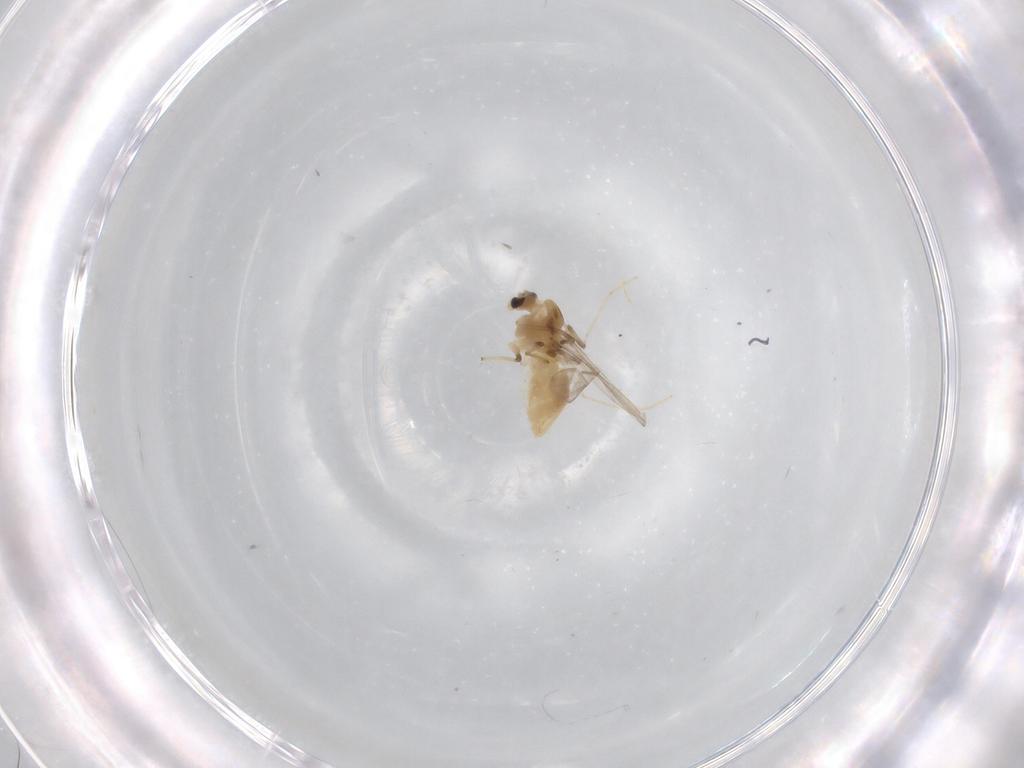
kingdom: Animalia
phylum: Arthropoda
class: Insecta
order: Diptera
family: Chironomidae
